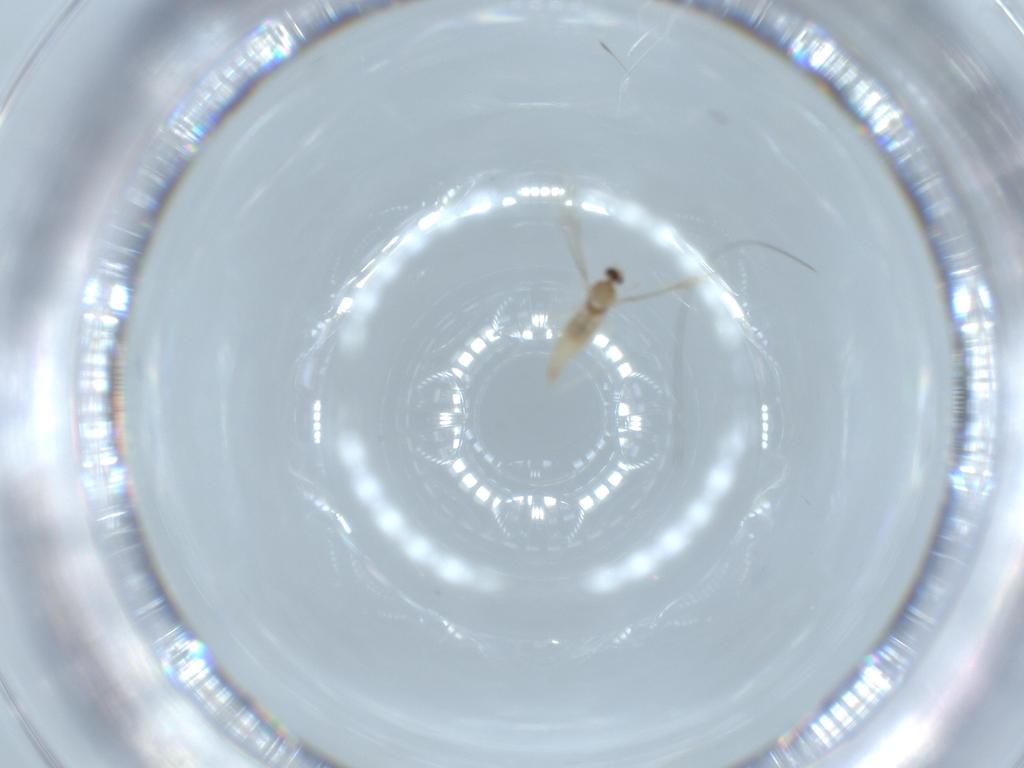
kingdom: Animalia
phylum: Arthropoda
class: Insecta
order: Diptera
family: Cecidomyiidae
